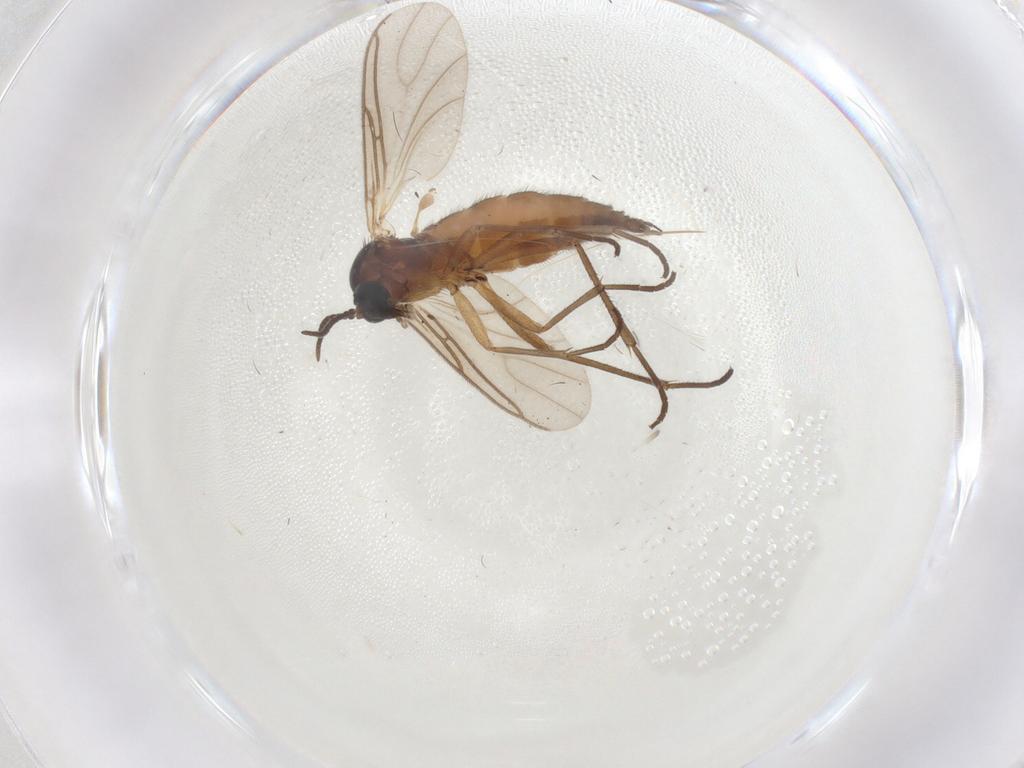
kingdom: Animalia
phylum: Arthropoda
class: Insecta
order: Diptera
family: Sciaridae
